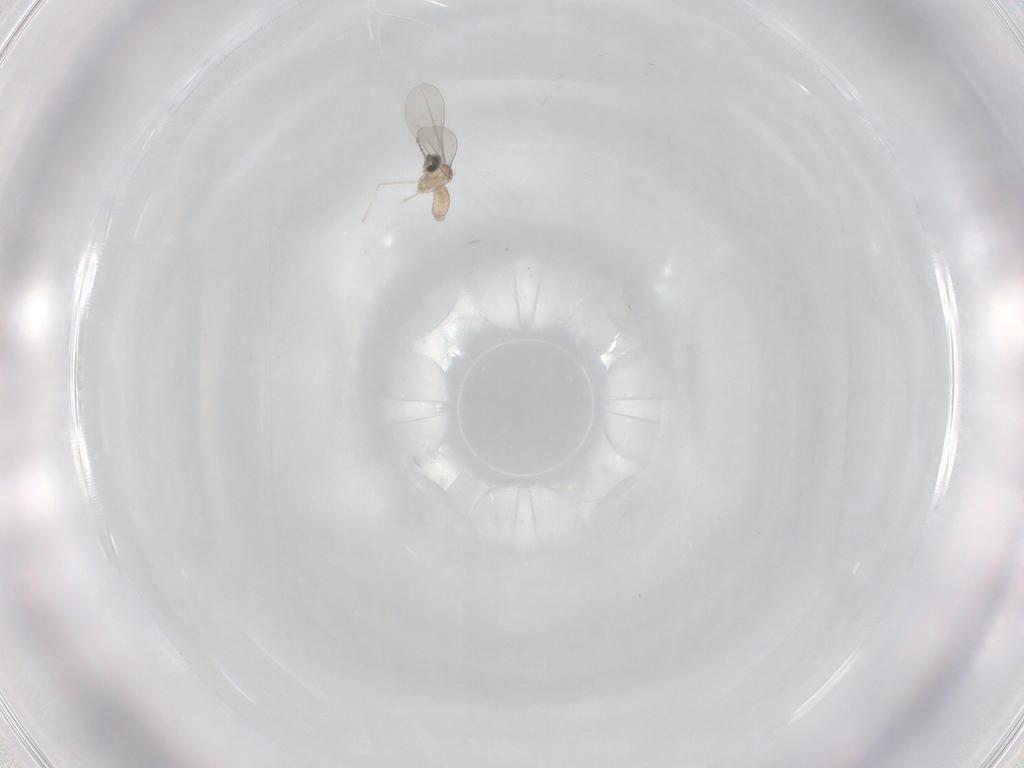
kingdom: Animalia
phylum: Arthropoda
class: Insecta
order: Diptera
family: Cecidomyiidae
